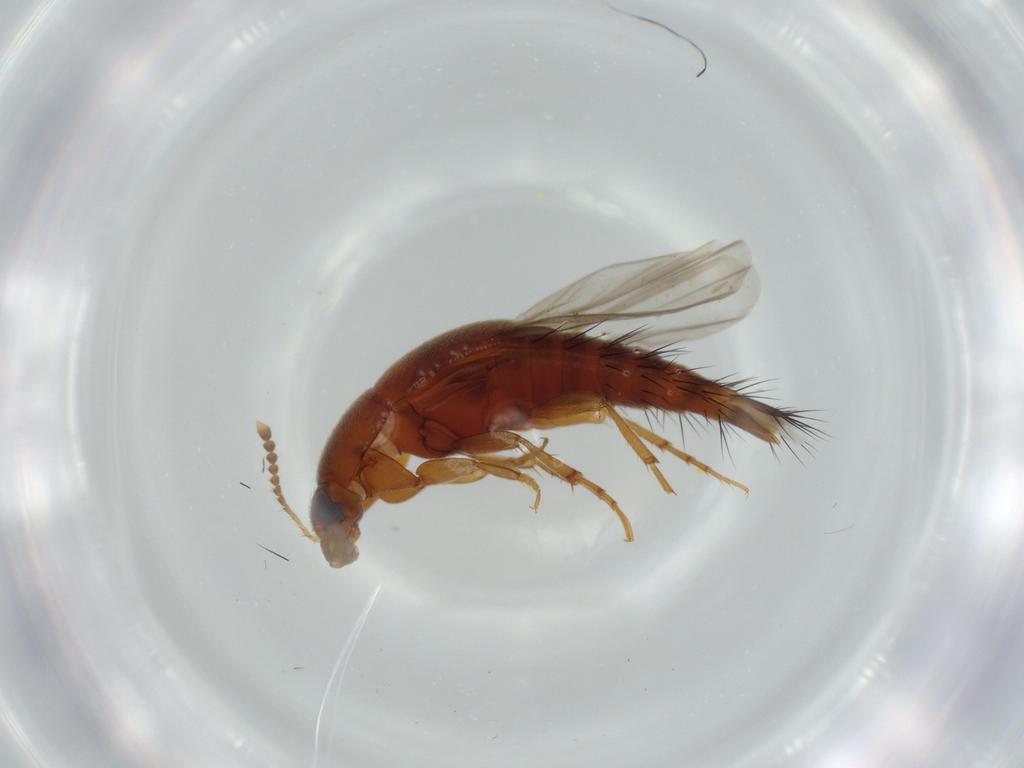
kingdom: Animalia
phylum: Arthropoda
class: Insecta
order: Coleoptera
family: Staphylinidae
